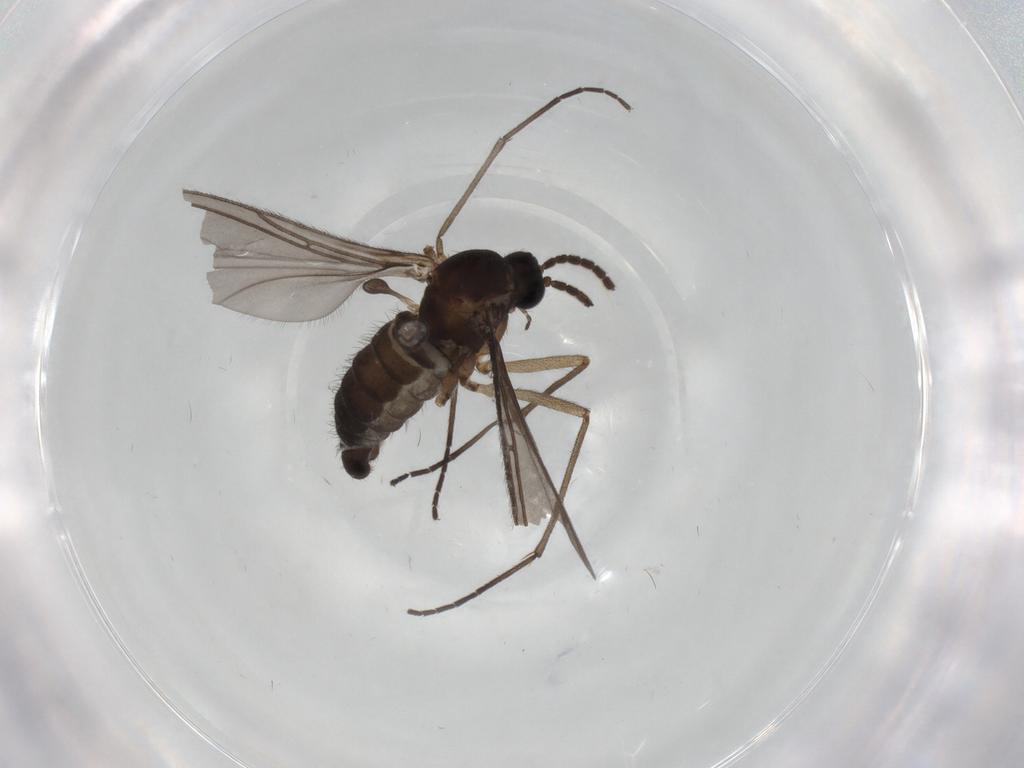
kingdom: Animalia
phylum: Arthropoda
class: Insecta
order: Diptera
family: Sciaridae
